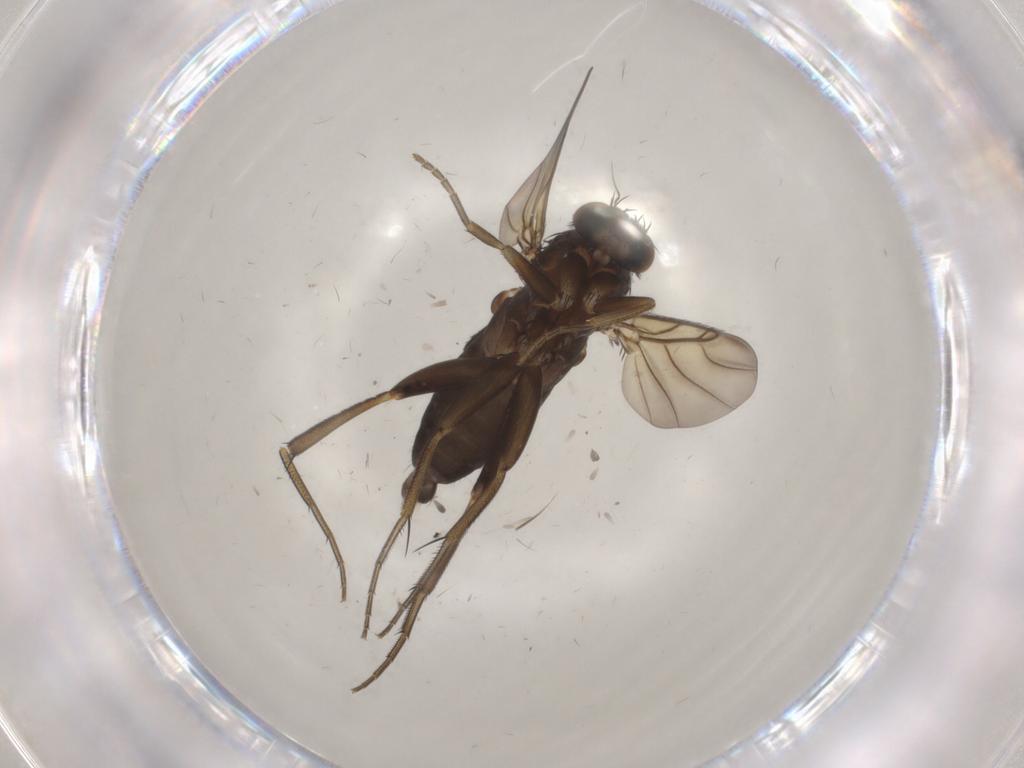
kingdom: Animalia
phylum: Arthropoda
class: Insecta
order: Diptera
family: Phoridae
